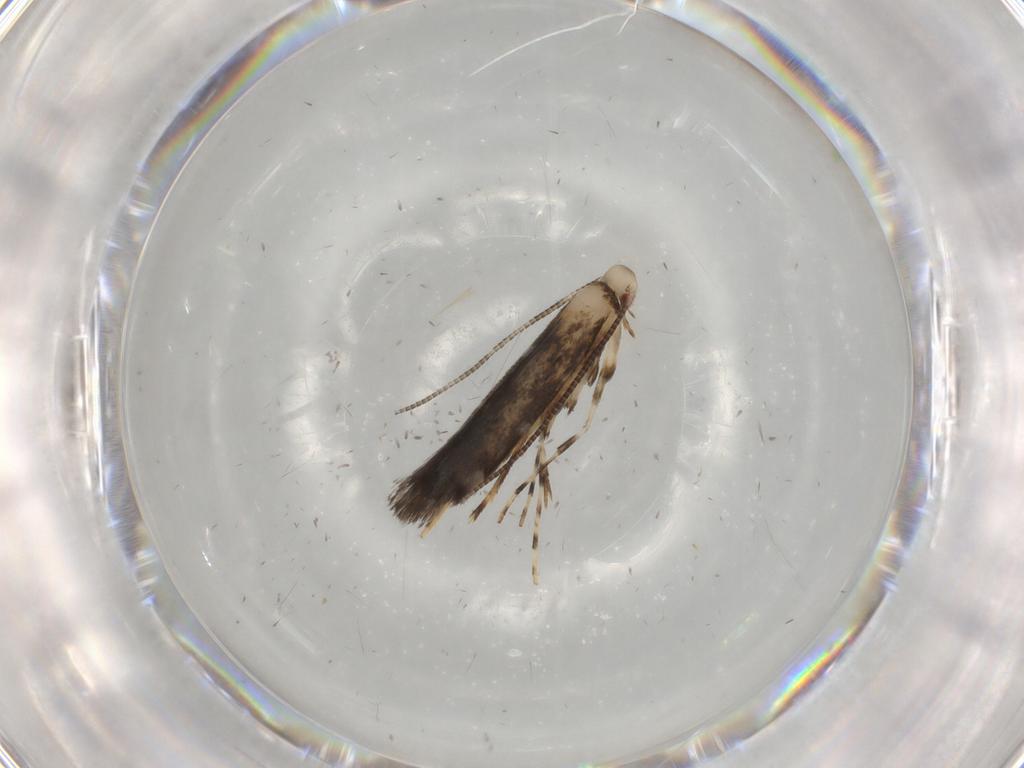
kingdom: Animalia
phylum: Arthropoda
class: Insecta
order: Lepidoptera
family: Gracillariidae
